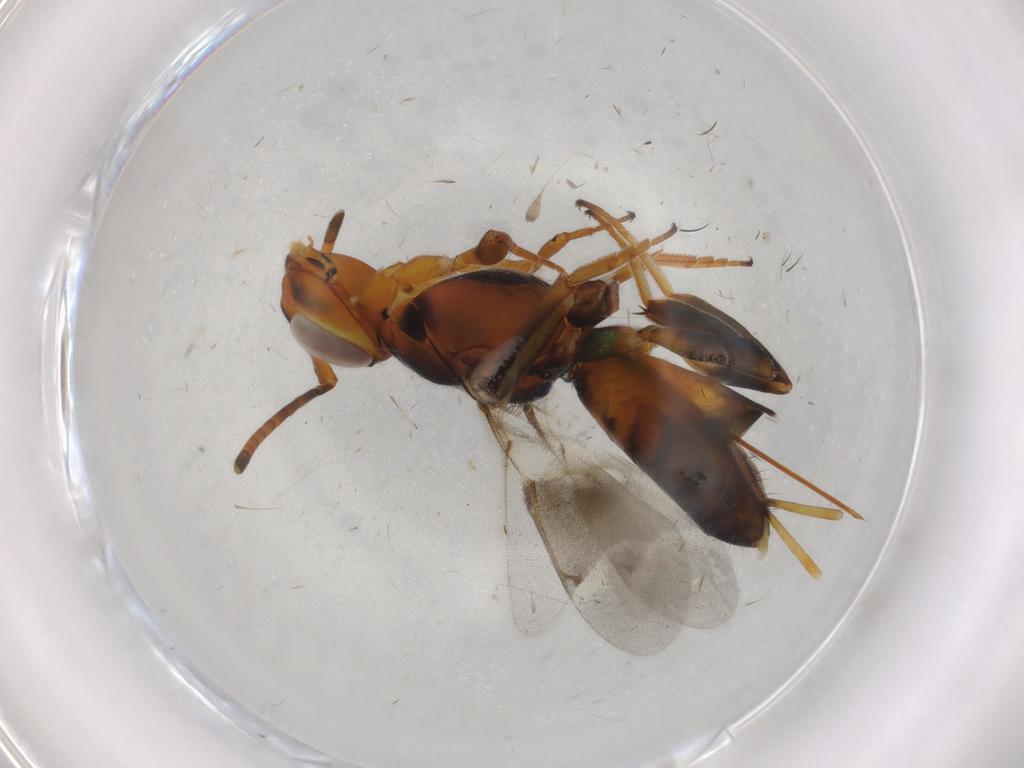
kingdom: Animalia
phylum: Arthropoda
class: Insecta
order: Hymenoptera
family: Eupelmidae
